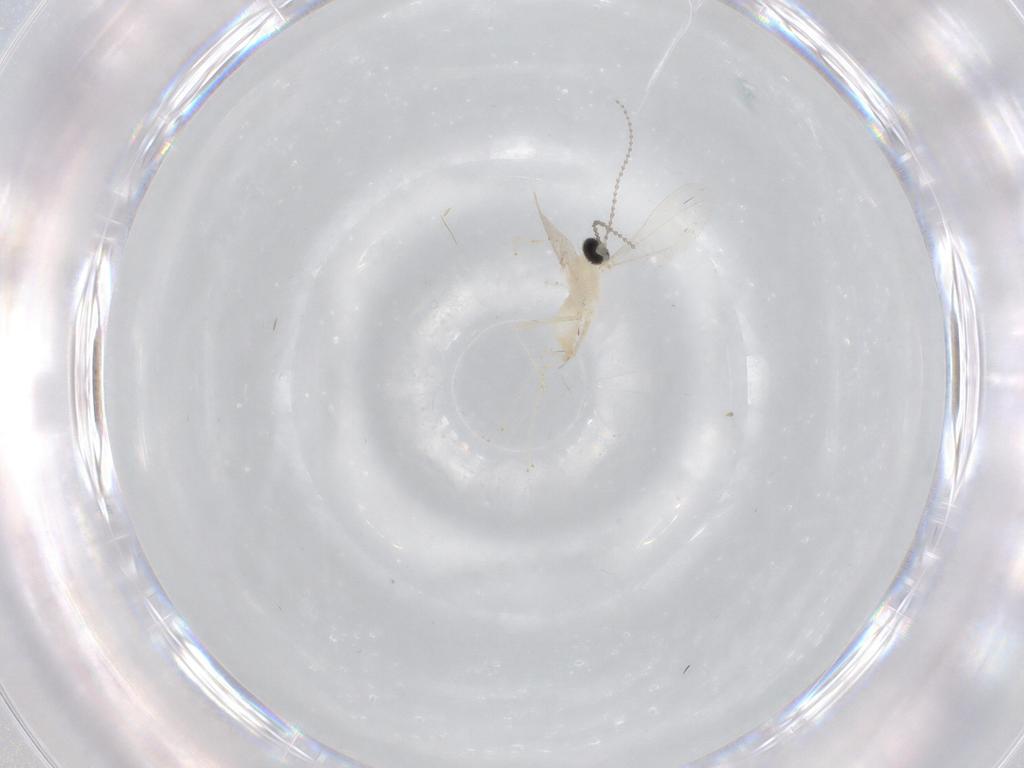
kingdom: Animalia
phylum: Arthropoda
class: Insecta
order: Diptera
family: Cecidomyiidae
